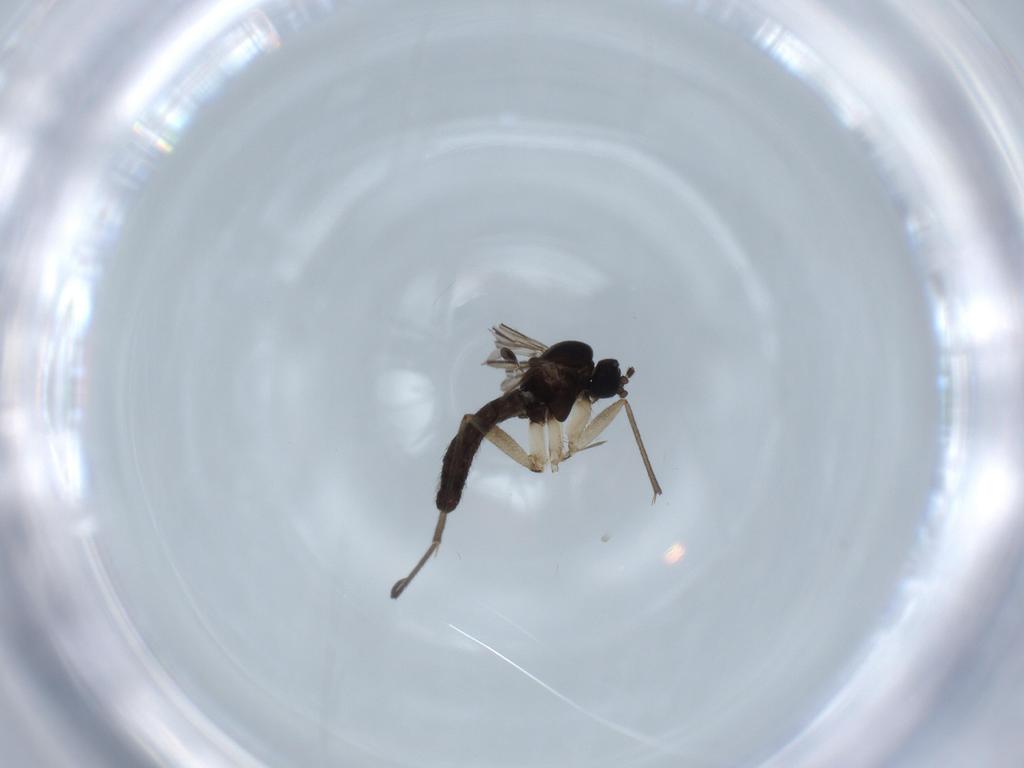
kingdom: Animalia
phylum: Arthropoda
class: Insecta
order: Diptera
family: Sciaridae
